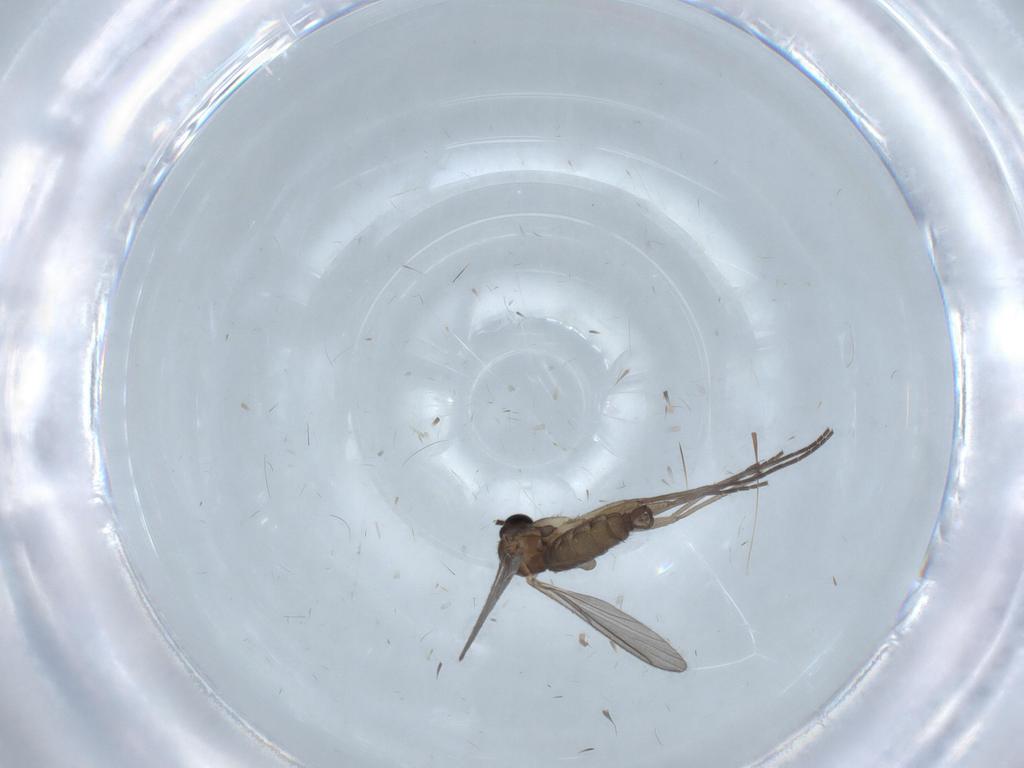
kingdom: Animalia
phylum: Arthropoda
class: Insecta
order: Diptera
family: Sciaridae
